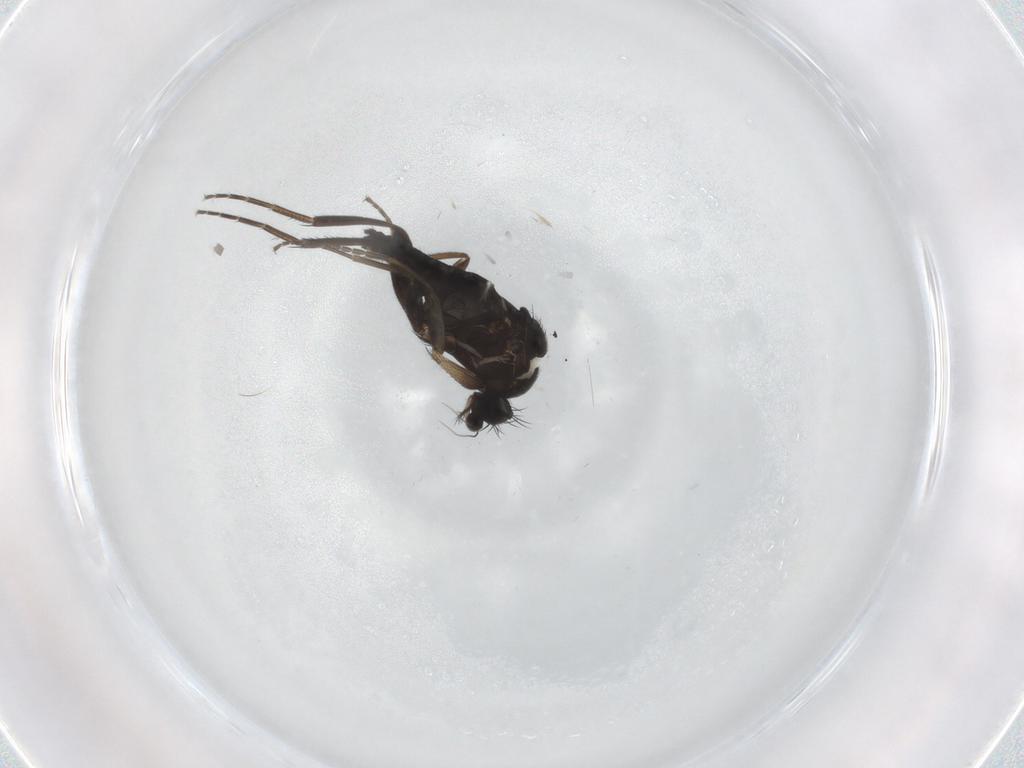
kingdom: Animalia
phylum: Arthropoda
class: Insecta
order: Diptera
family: Phoridae
